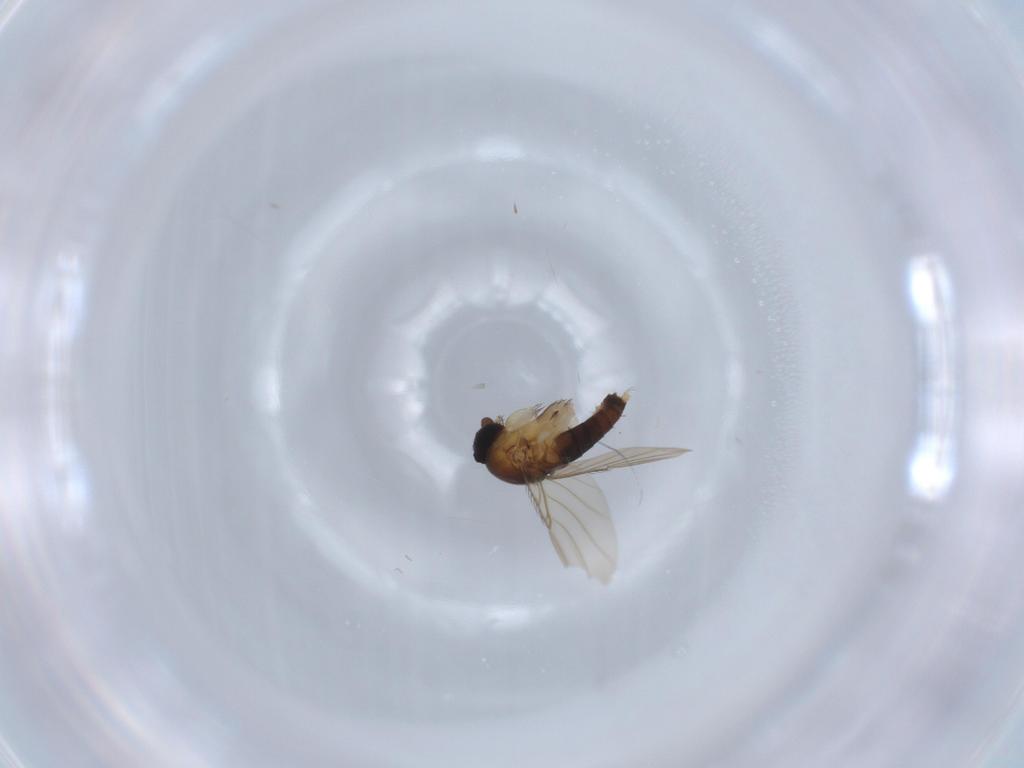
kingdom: Animalia
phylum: Arthropoda
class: Insecta
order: Diptera
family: Phoridae
